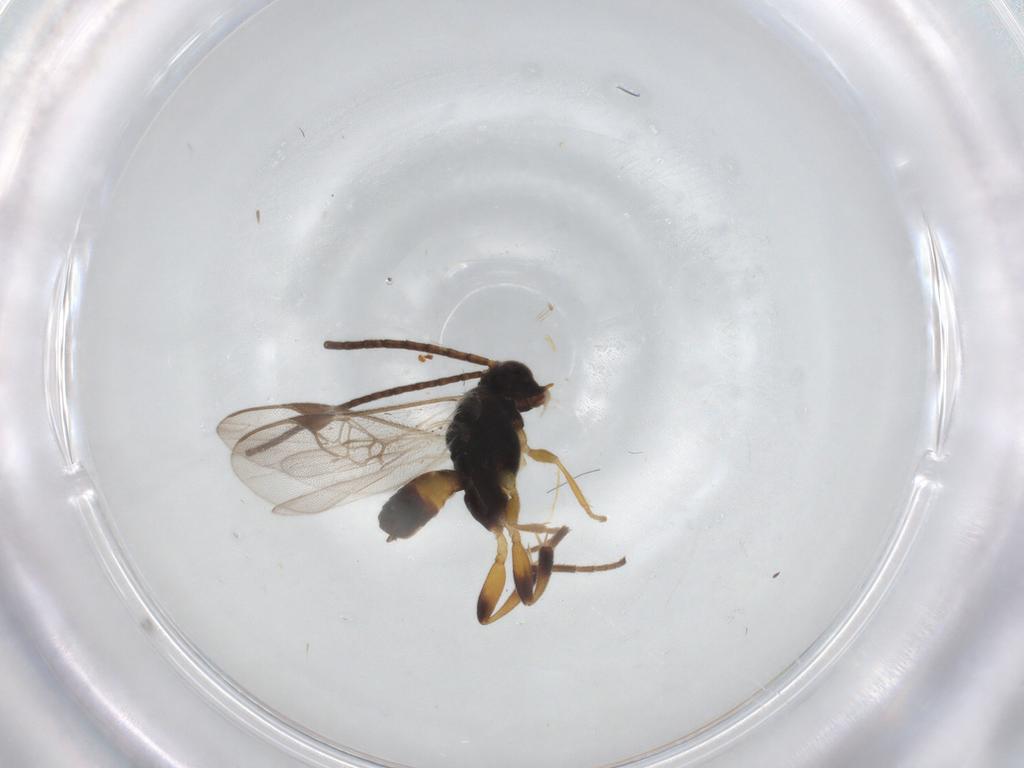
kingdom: Animalia
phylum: Arthropoda
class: Insecta
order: Hymenoptera
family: Braconidae
